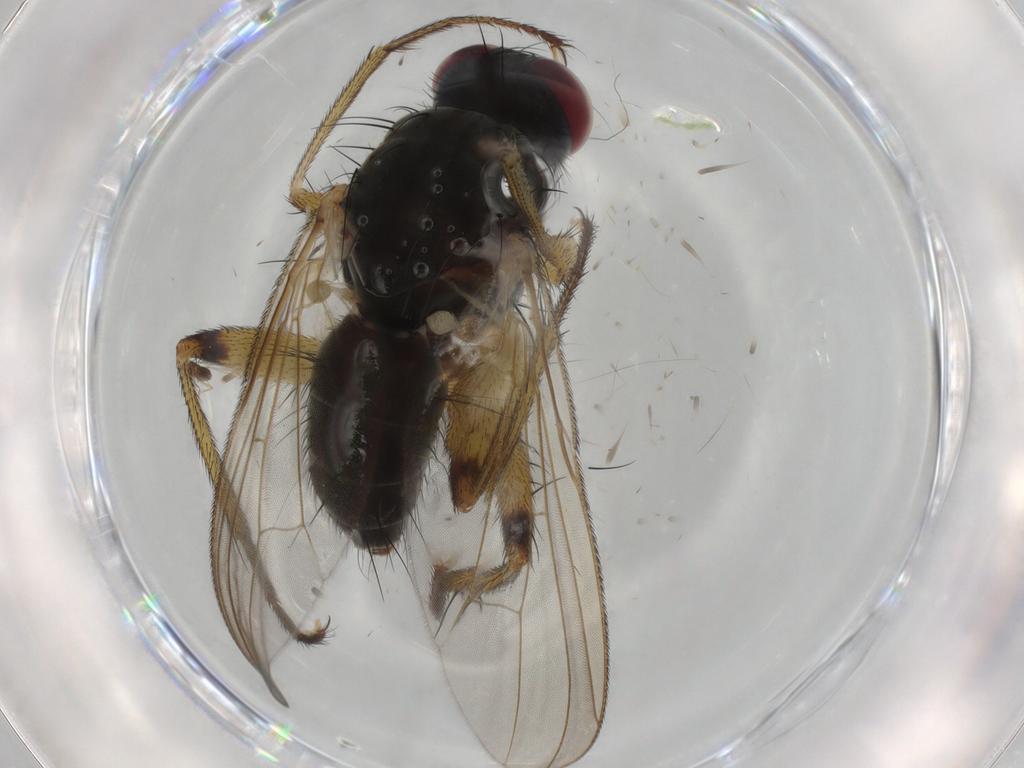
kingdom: Animalia
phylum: Arthropoda
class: Insecta
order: Diptera
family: Muscidae
